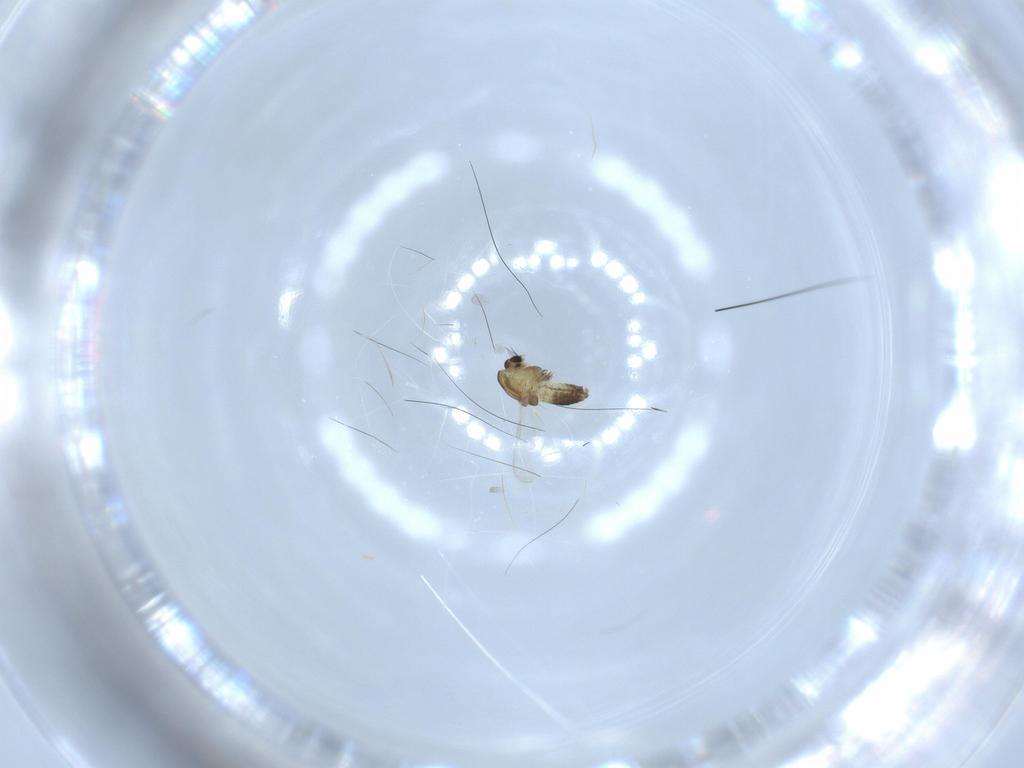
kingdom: Animalia
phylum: Arthropoda
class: Insecta
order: Diptera
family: Chironomidae
